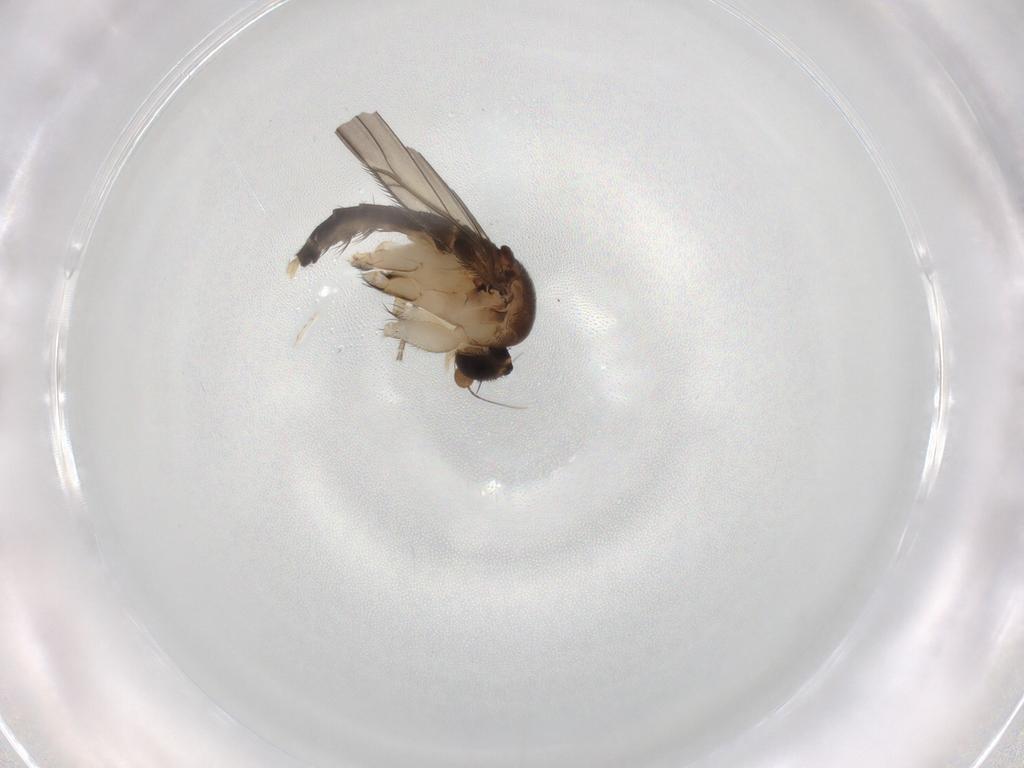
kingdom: Animalia
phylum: Arthropoda
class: Insecta
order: Diptera
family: Phoridae
